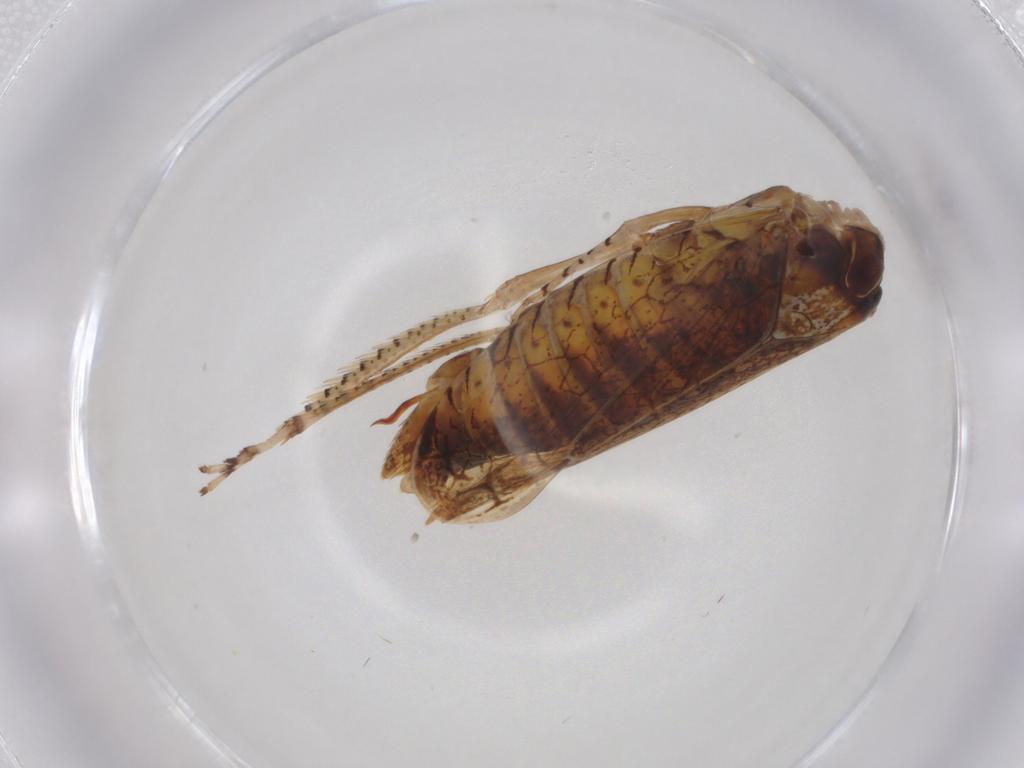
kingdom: Animalia
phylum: Arthropoda
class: Insecta
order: Hemiptera
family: Cicadellidae
